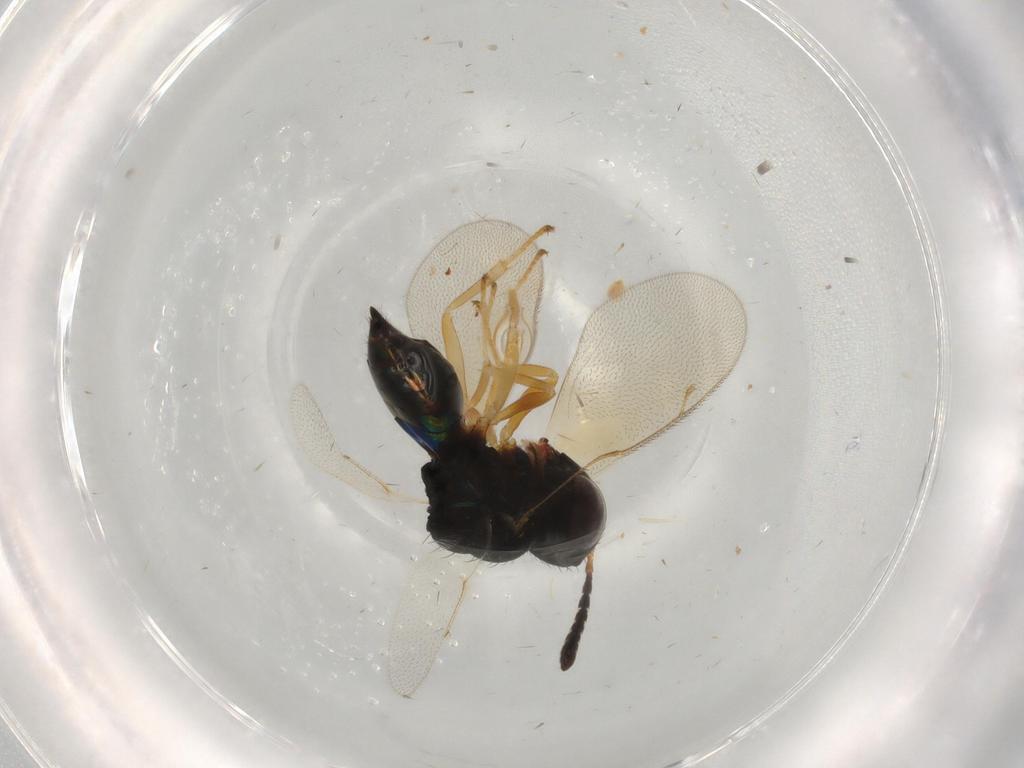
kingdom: Animalia
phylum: Arthropoda
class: Insecta
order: Hymenoptera
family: Pteromalidae
